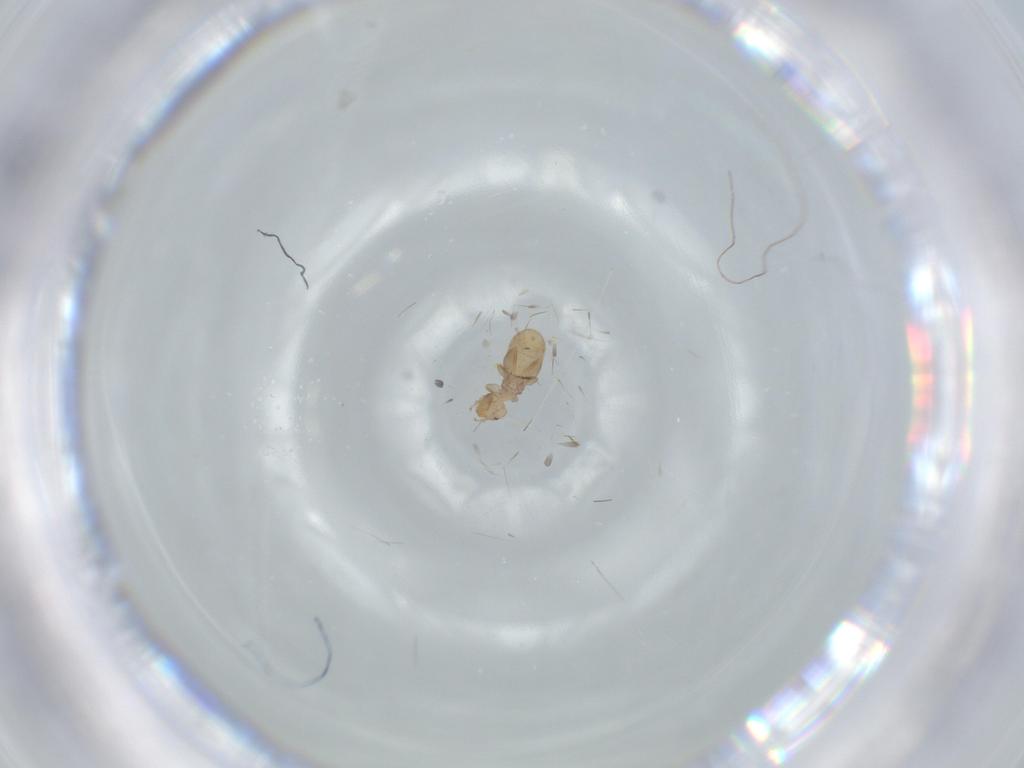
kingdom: Animalia
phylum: Arthropoda
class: Insecta
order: Psocodea
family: Liposcelididae
